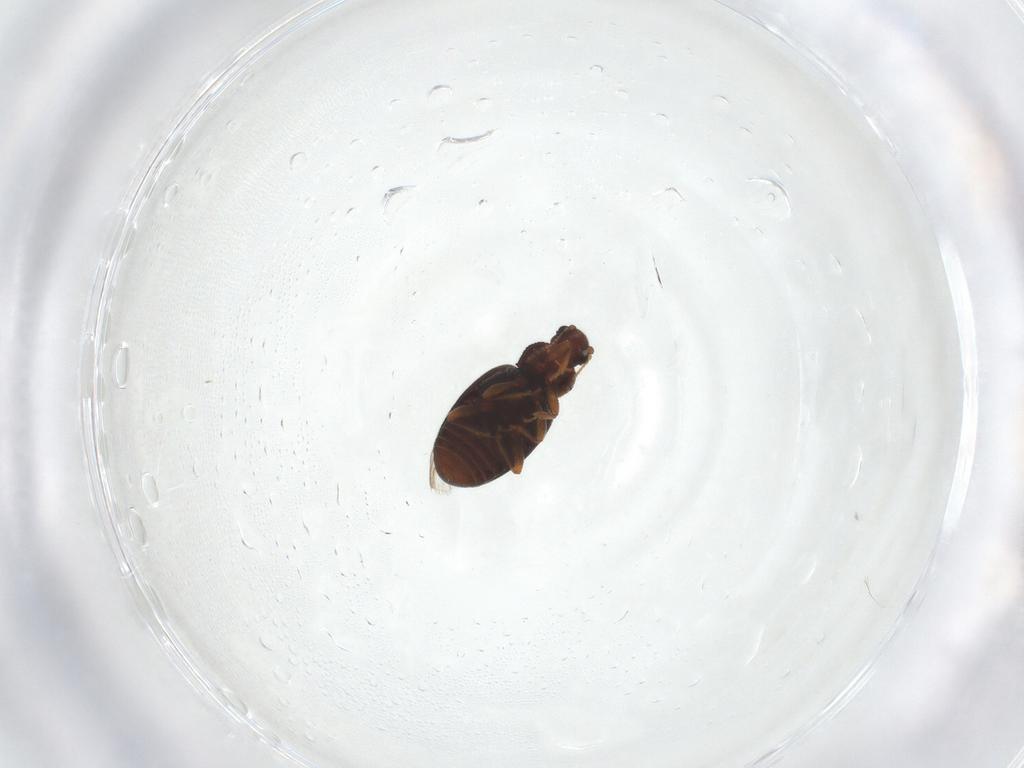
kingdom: Animalia
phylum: Arthropoda
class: Insecta
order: Coleoptera
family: Latridiidae
